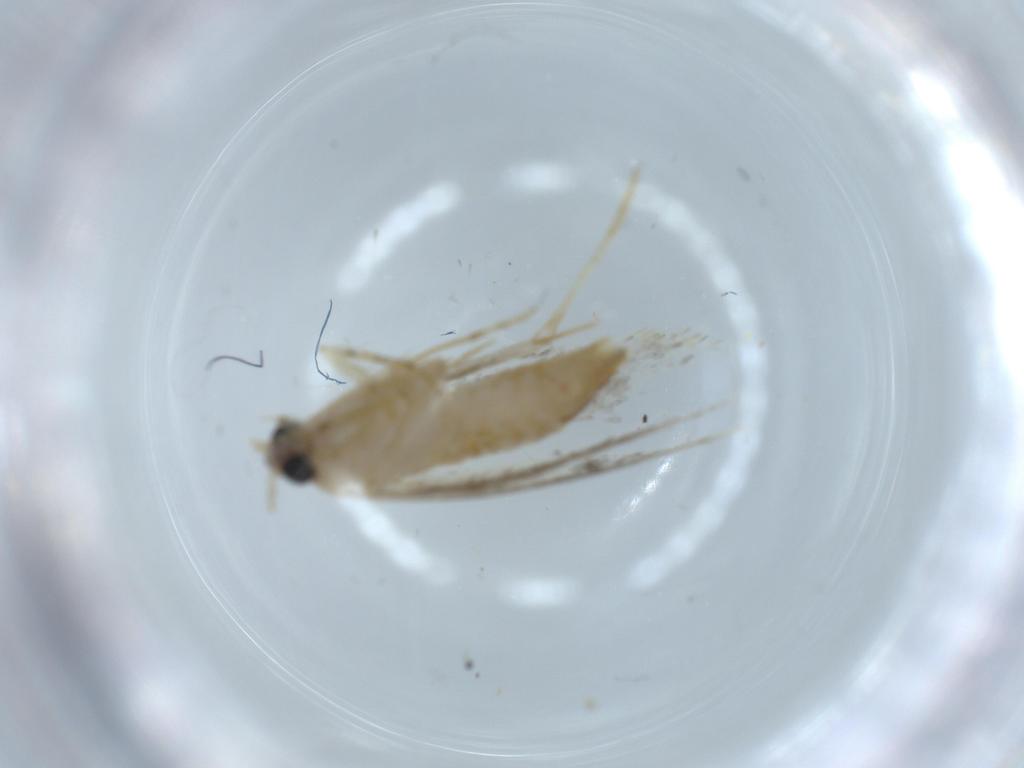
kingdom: Animalia
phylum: Arthropoda
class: Insecta
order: Lepidoptera
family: Tineidae
